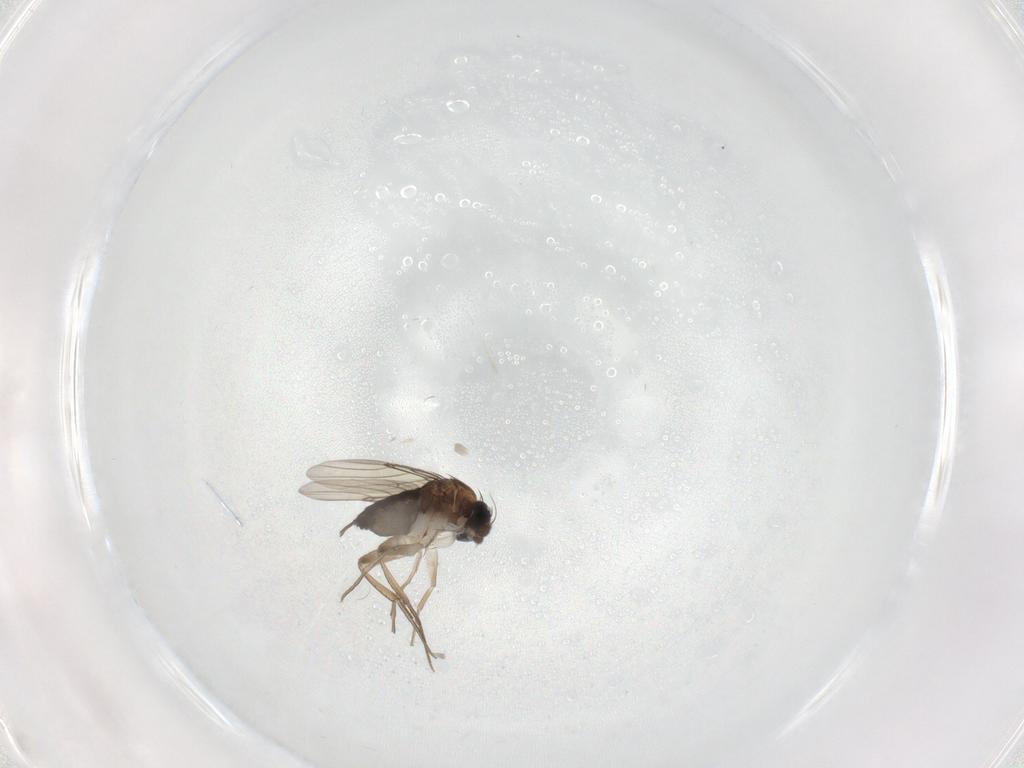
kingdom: Animalia
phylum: Arthropoda
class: Insecta
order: Diptera
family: Phoridae
